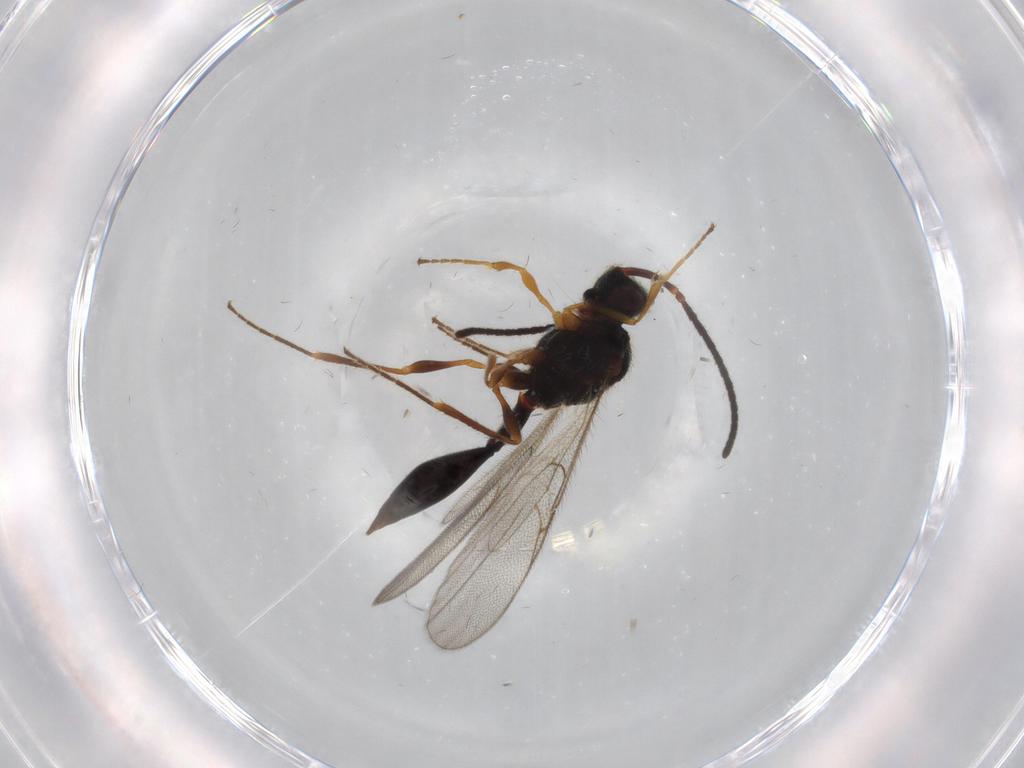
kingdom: Animalia
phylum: Arthropoda
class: Insecta
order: Hymenoptera
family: Diapriidae
